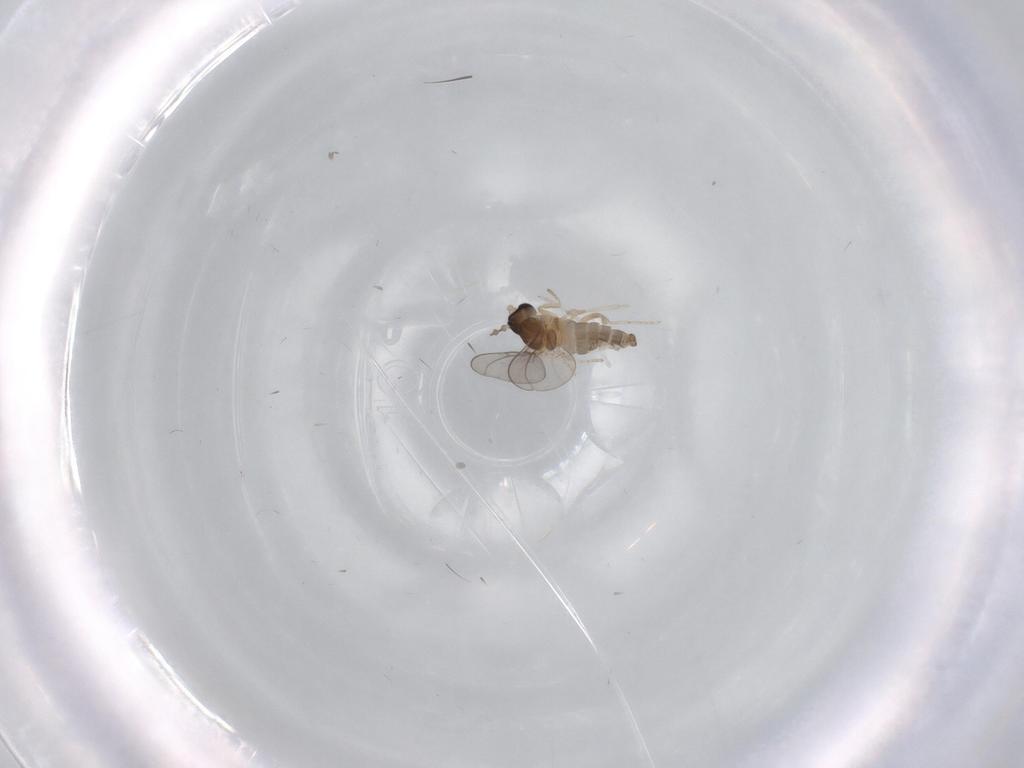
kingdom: Animalia
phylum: Arthropoda
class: Insecta
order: Diptera
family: Cecidomyiidae
